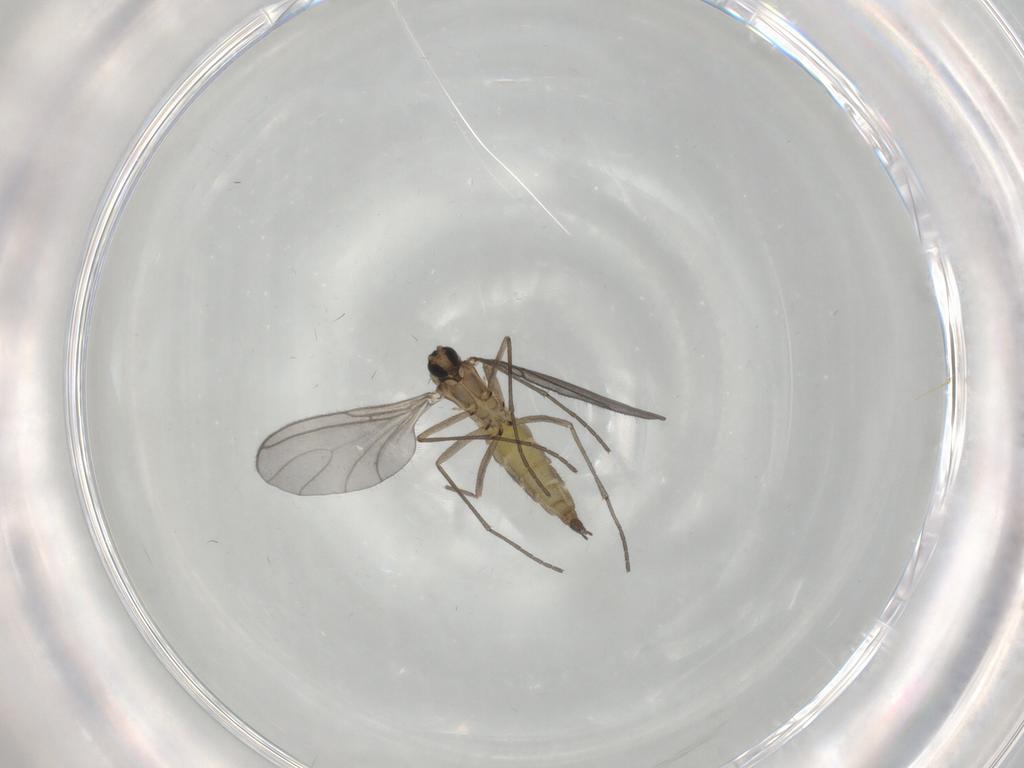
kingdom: Animalia
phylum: Arthropoda
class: Insecta
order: Diptera
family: Sciaridae
